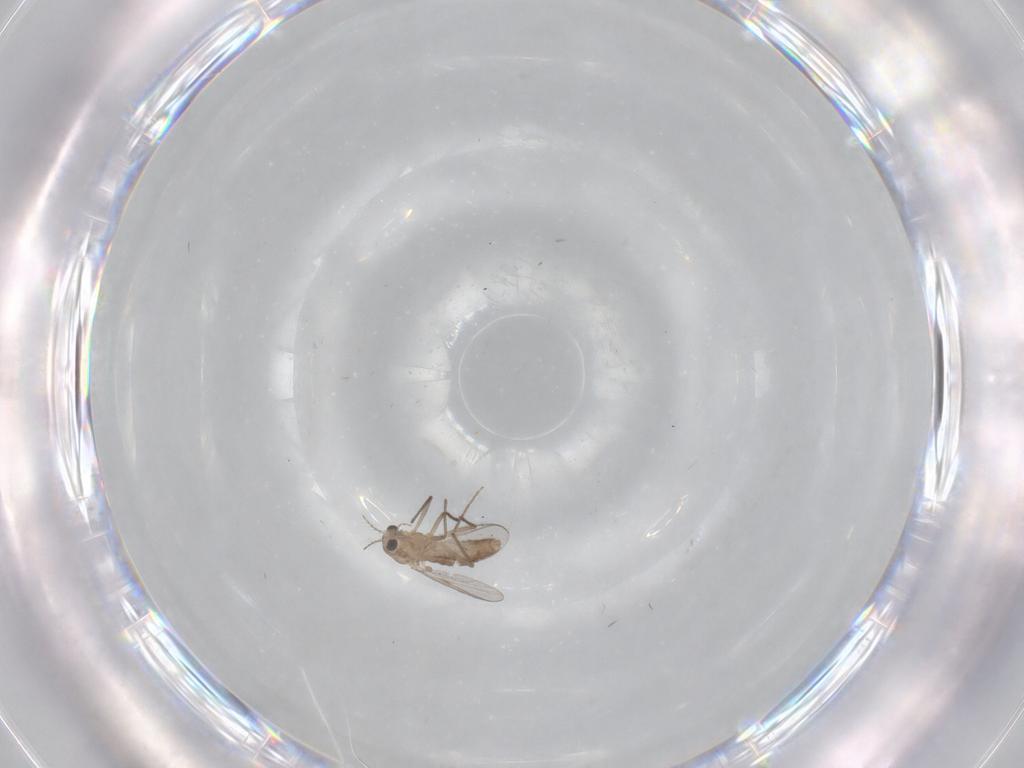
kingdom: Animalia
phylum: Arthropoda
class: Insecta
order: Diptera
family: Chironomidae
